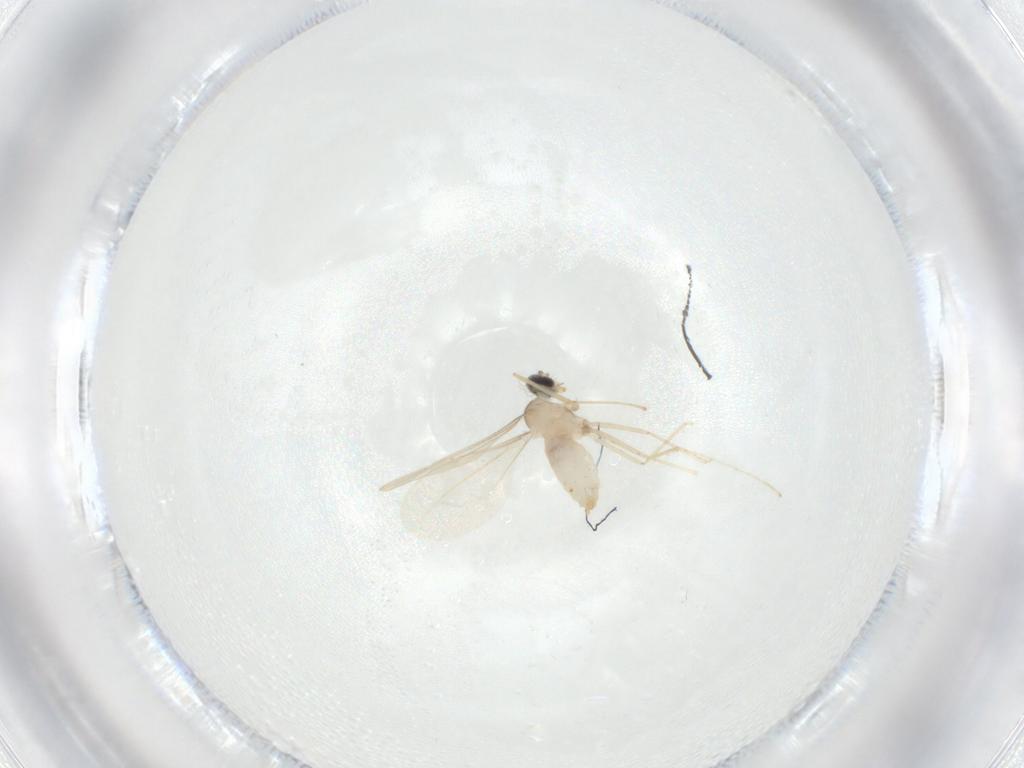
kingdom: Animalia
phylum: Arthropoda
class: Insecta
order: Diptera
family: Cecidomyiidae
